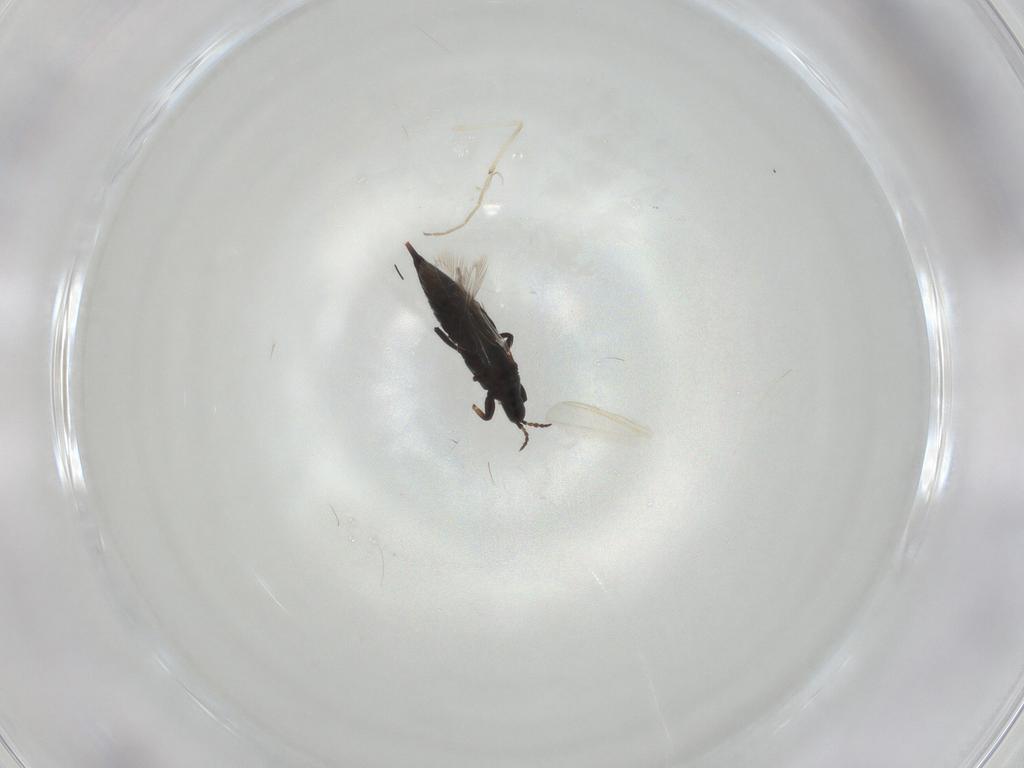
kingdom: Animalia
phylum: Arthropoda
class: Insecta
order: Thysanoptera
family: Phlaeothripidae
